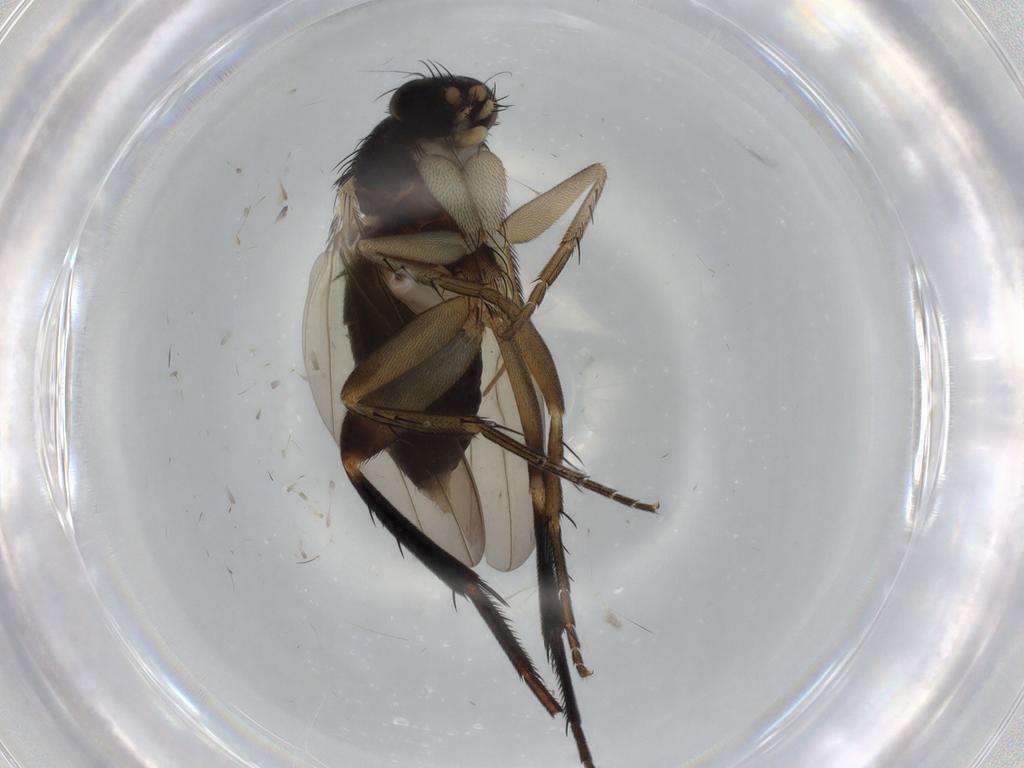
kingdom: Animalia
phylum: Arthropoda
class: Insecta
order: Diptera
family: Phoridae
